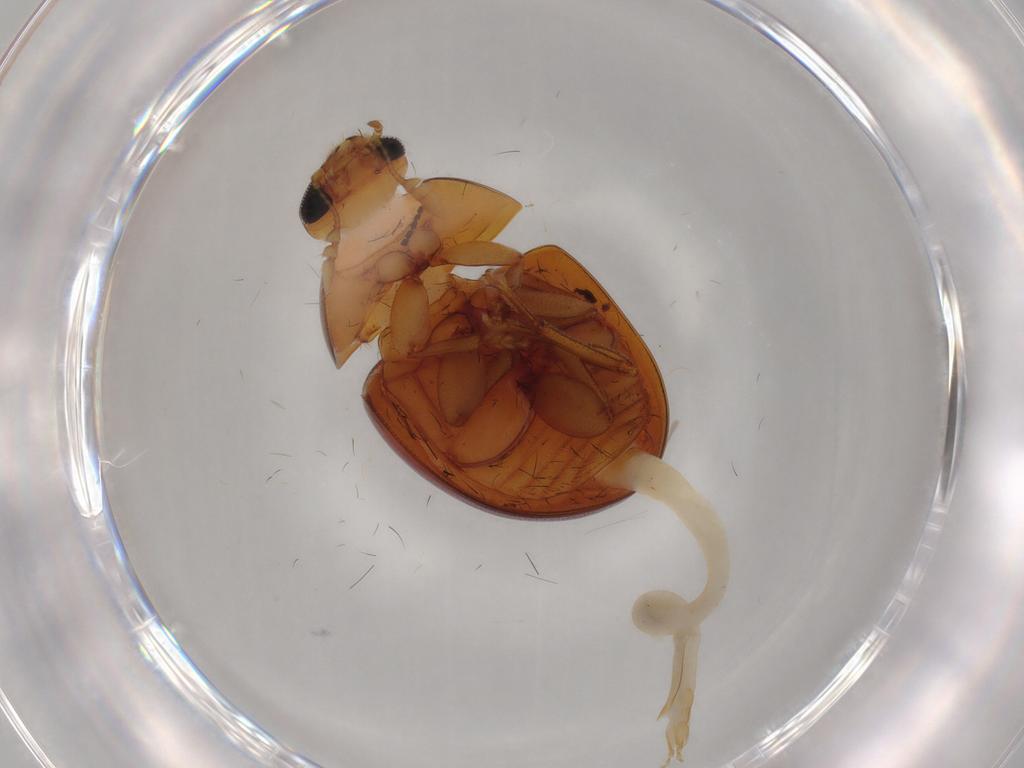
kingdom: Animalia
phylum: Arthropoda
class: Insecta
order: Coleoptera
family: Phalacridae
